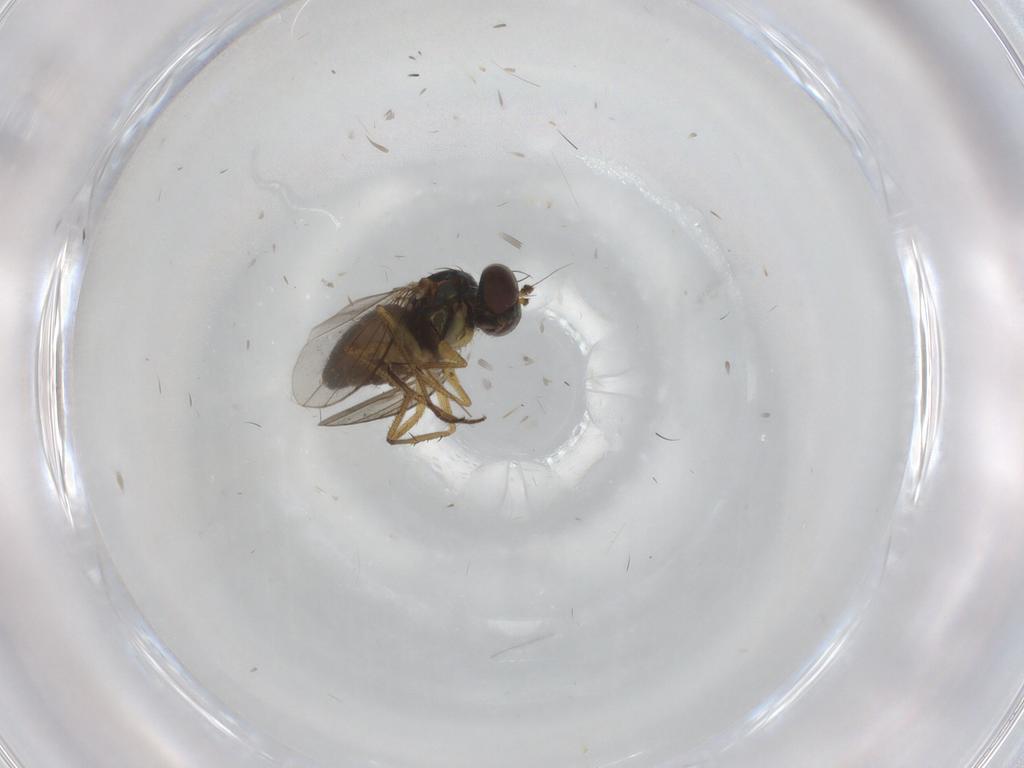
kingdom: Animalia
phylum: Arthropoda
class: Insecta
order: Diptera
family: Dolichopodidae
